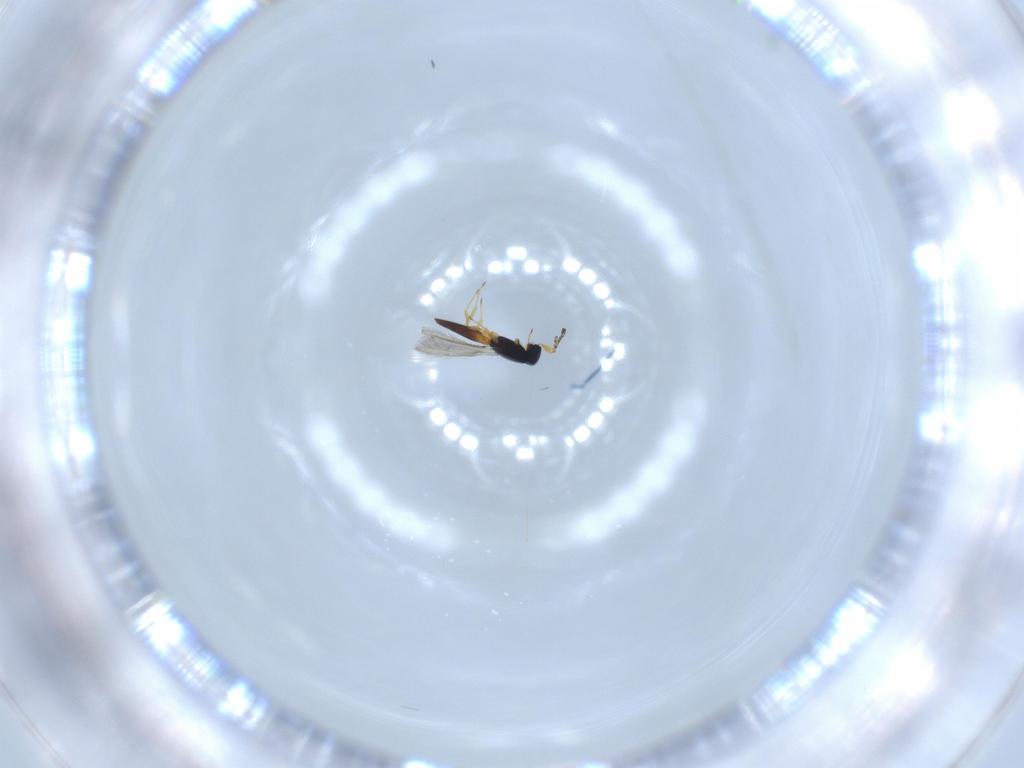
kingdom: Animalia
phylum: Arthropoda
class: Insecta
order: Hymenoptera
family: Scelionidae
